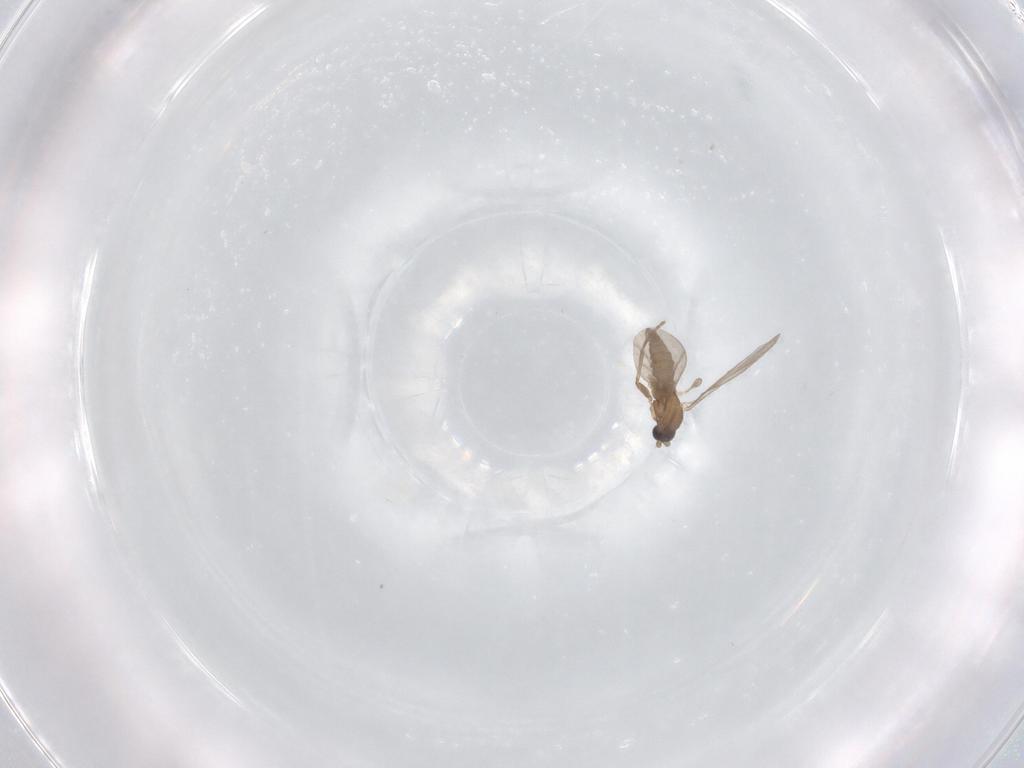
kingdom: Animalia
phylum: Arthropoda
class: Insecta
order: Diptera
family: Sciaridae
